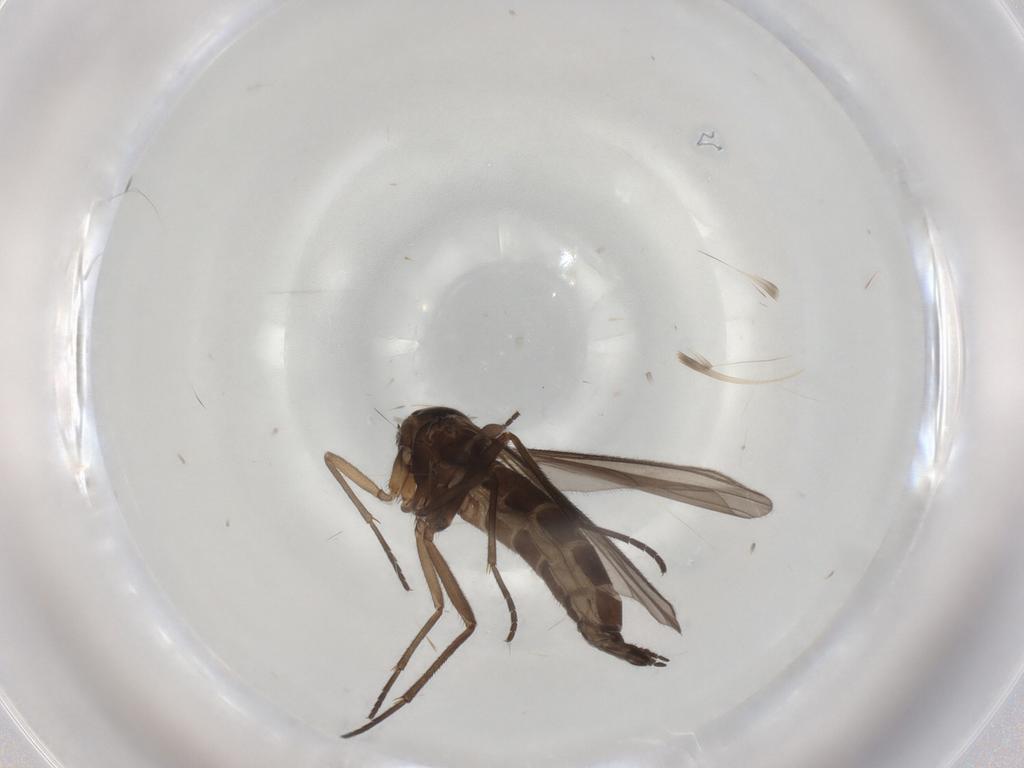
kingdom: Animalia
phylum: Arthropoda
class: Insecta
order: Diptera
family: Sciaridae
